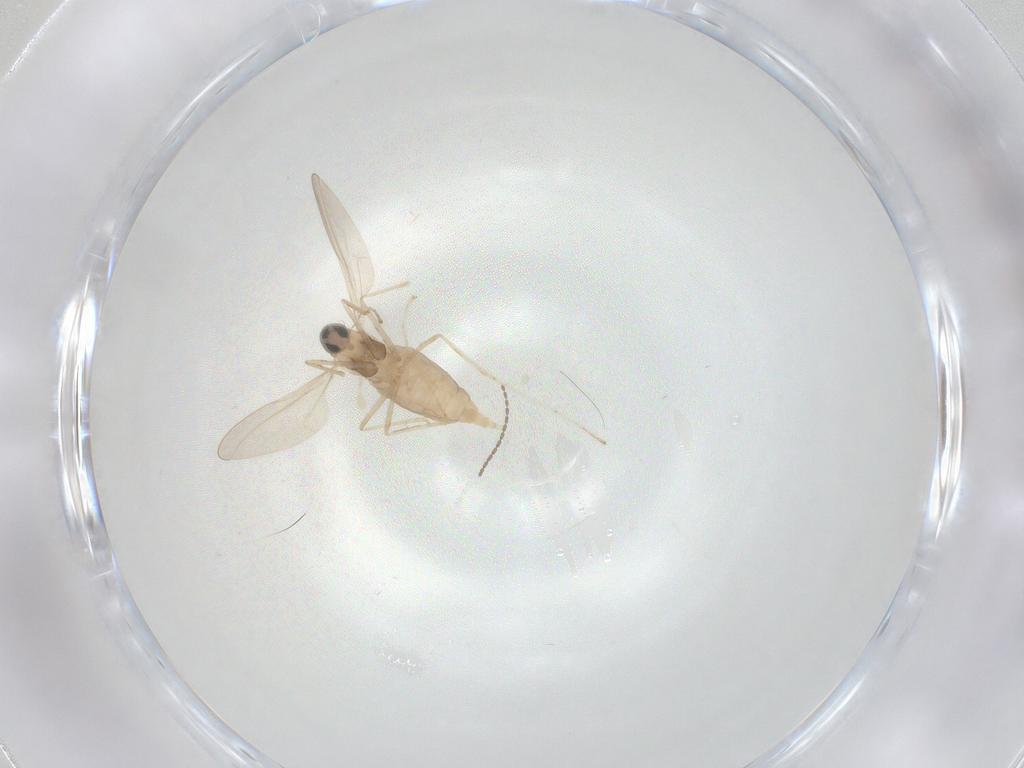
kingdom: Animalia
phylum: Arthropoda
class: Insecta
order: Diptera
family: Cecidomyiidae
